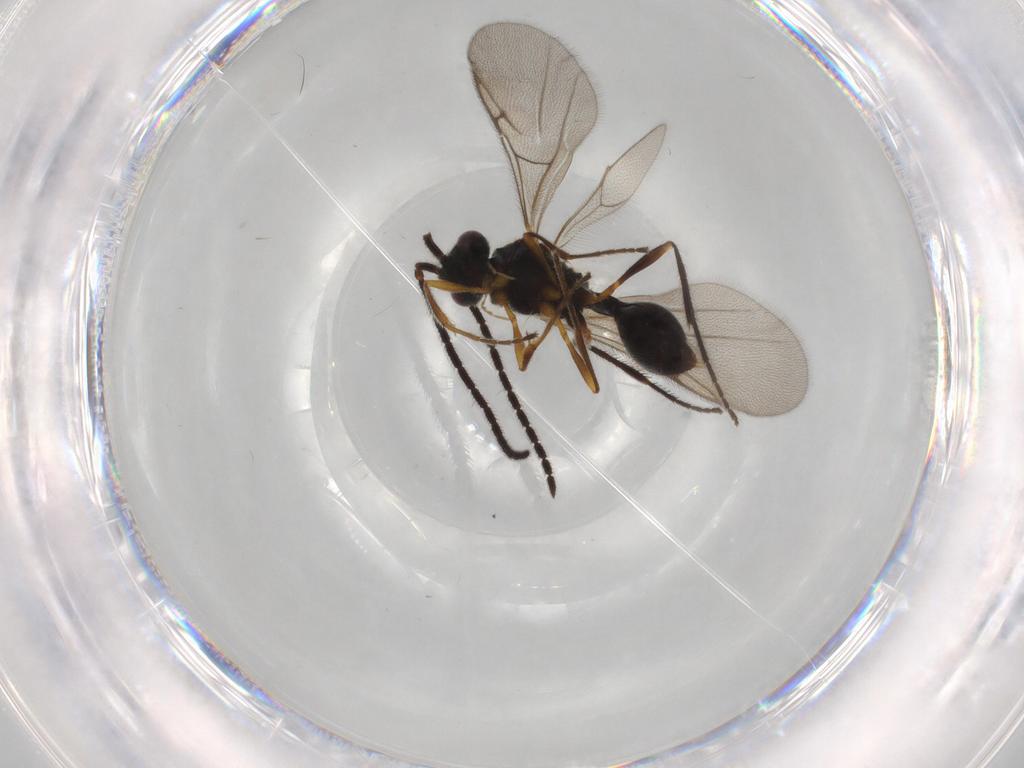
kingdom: Animalia
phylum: Arthropoda
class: Insecta
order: Hymenoptera
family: Diapriidae
